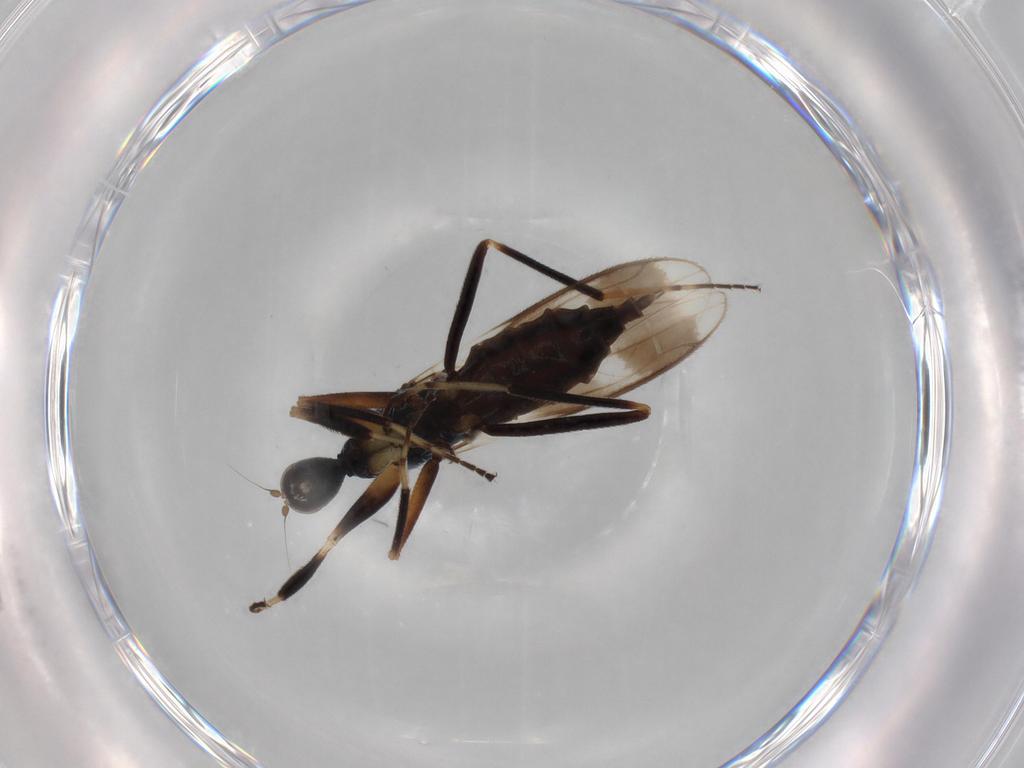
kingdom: Animalia
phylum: Arthropoda
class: Insecta
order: Diptera
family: Hybotidae
